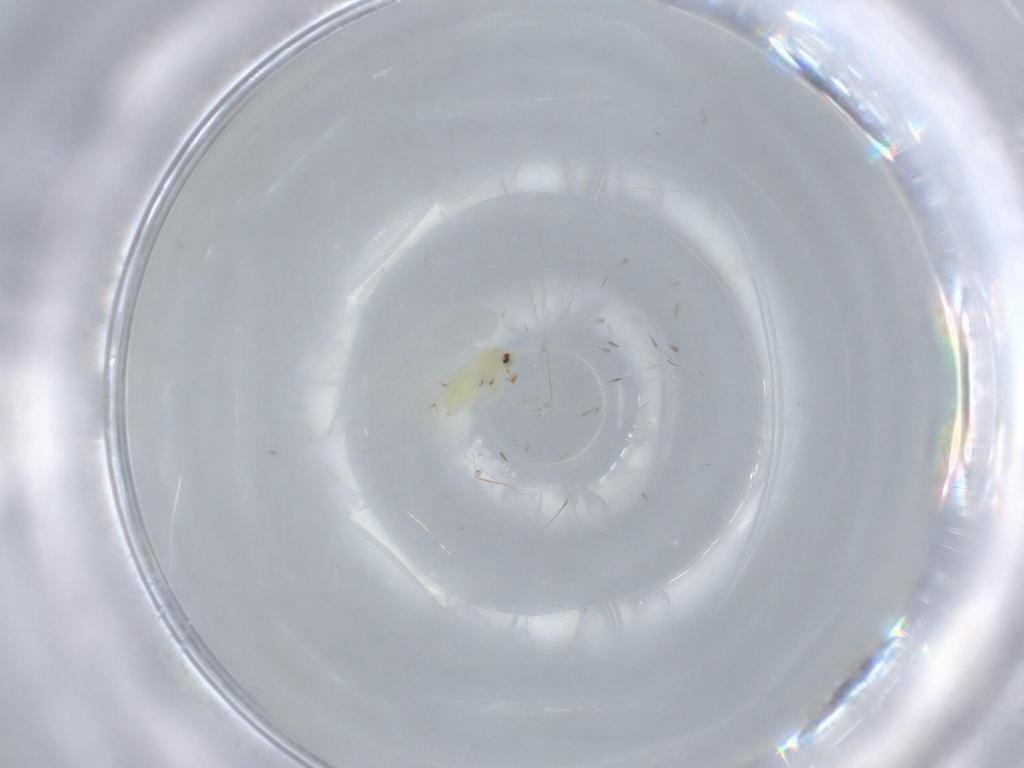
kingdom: Animalia
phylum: Arthropoda
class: Insecta
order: Hemiptera
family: Aleyrodidae
